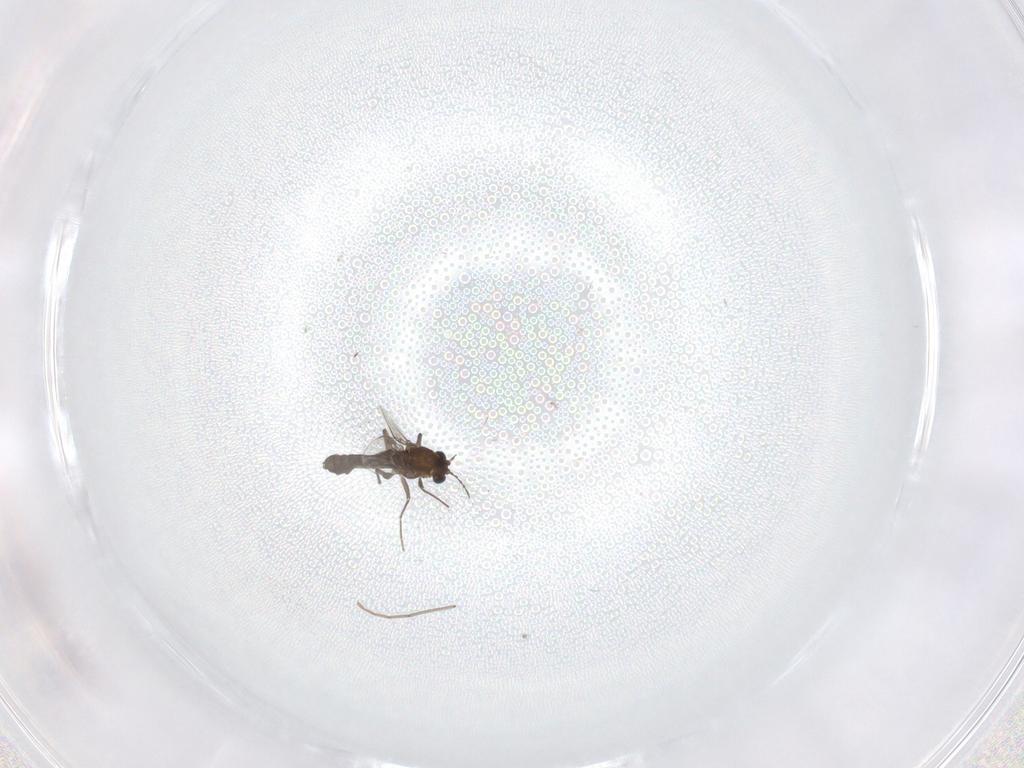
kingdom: Animalia
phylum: Arthropoda
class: Insecta
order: Diptera
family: Chironomidae
